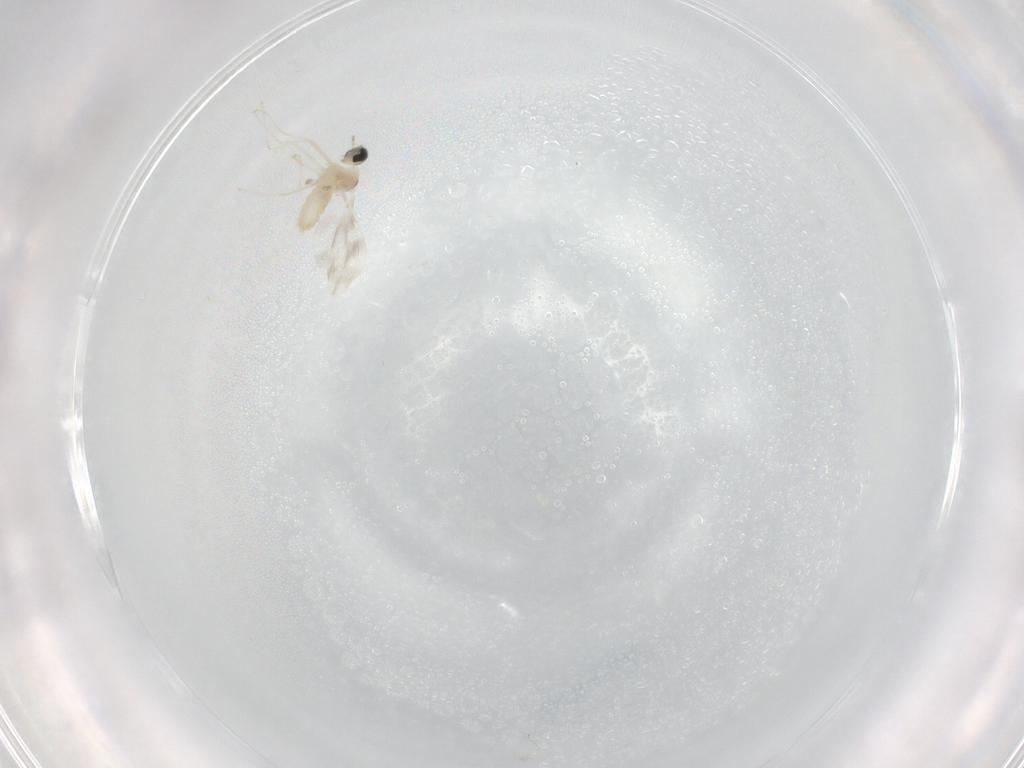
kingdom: Animalia
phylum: Arthropoda
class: Insecta
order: Diptera
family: Cecidomyiidae
